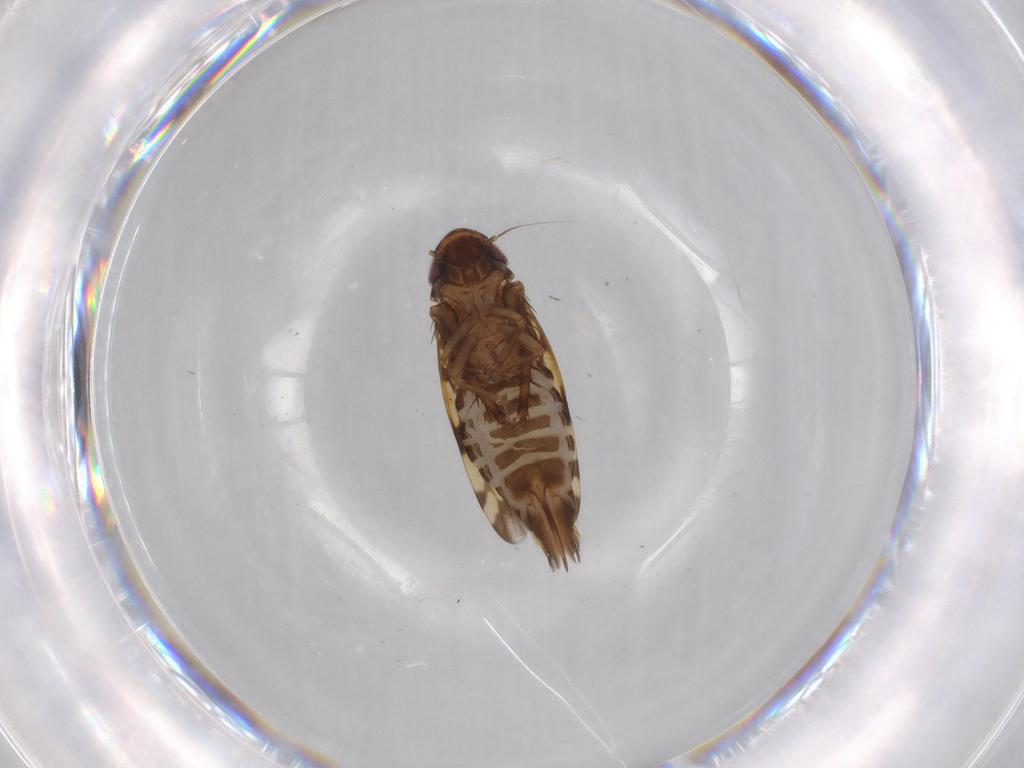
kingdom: Animalia
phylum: Arthropoda
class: Insecta
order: Hemiptera
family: Cicadellidae
